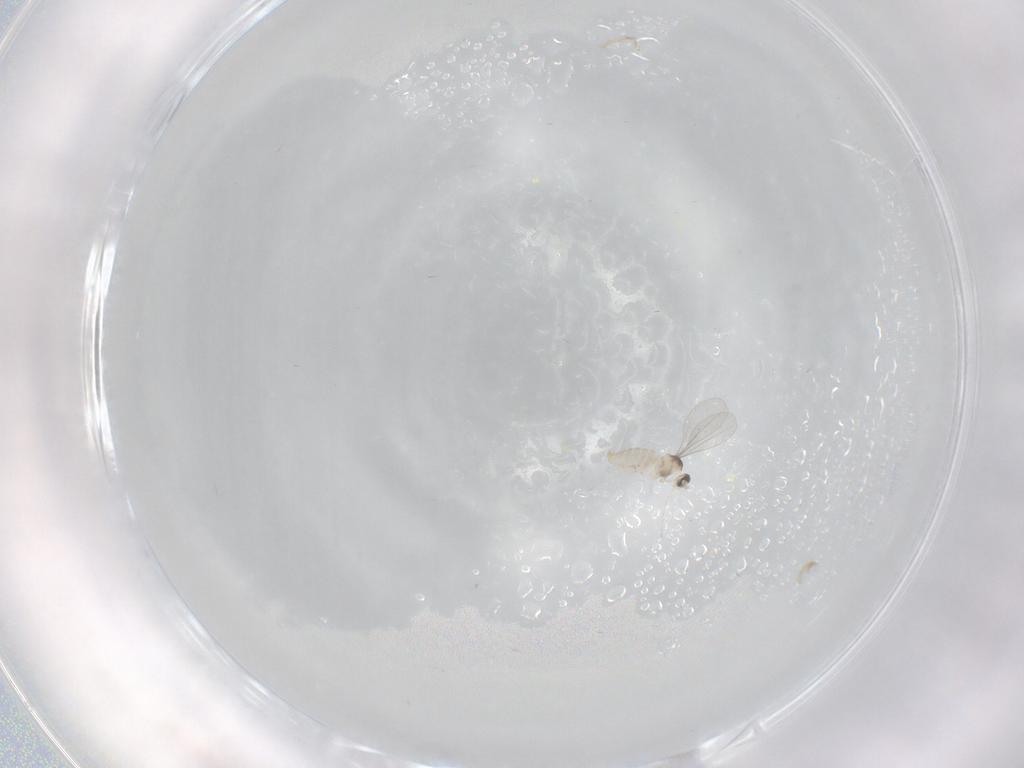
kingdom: Animalia
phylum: Arthropoda
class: Insecta
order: Diptera
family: Cecidomyiidae
